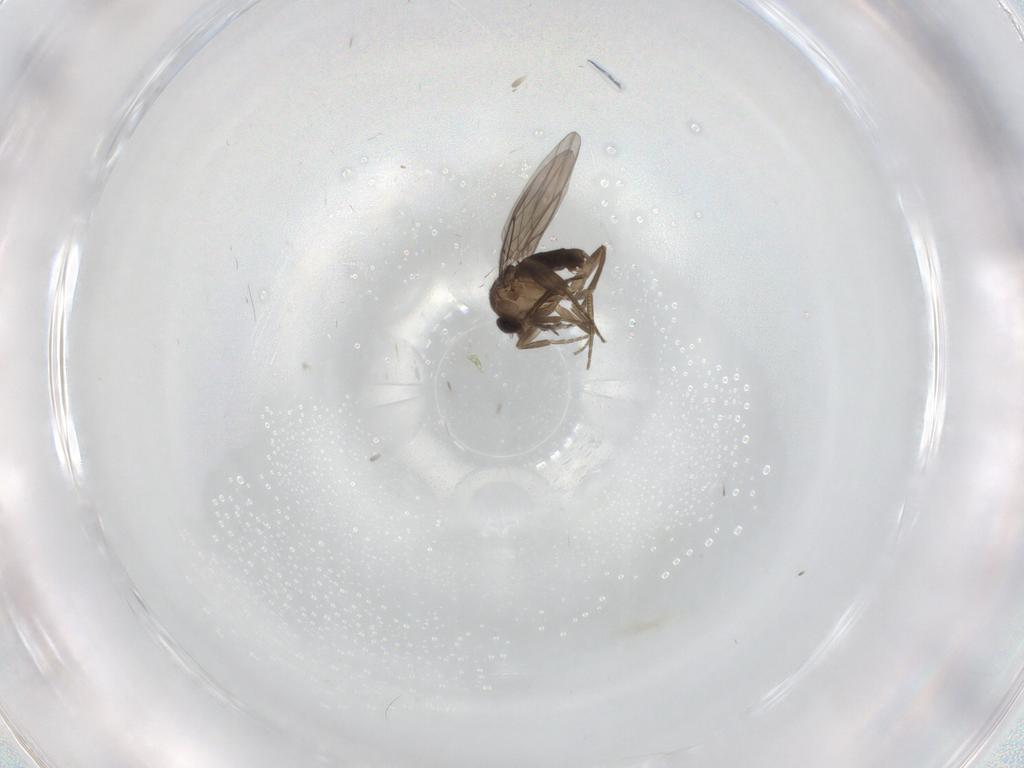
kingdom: Animalia
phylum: Arthropoda
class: Insecta
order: Diptera
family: Phoridae
